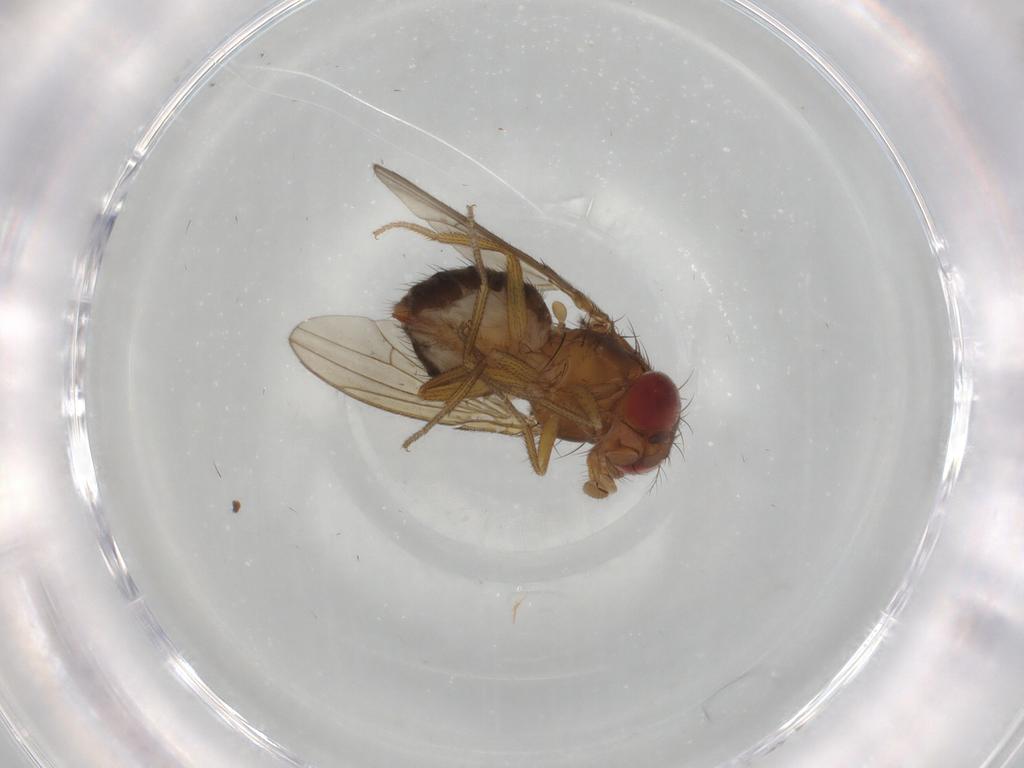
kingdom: Animalia
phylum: Arthropoda
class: Insecta
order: Diptera
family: Drosophilidae
